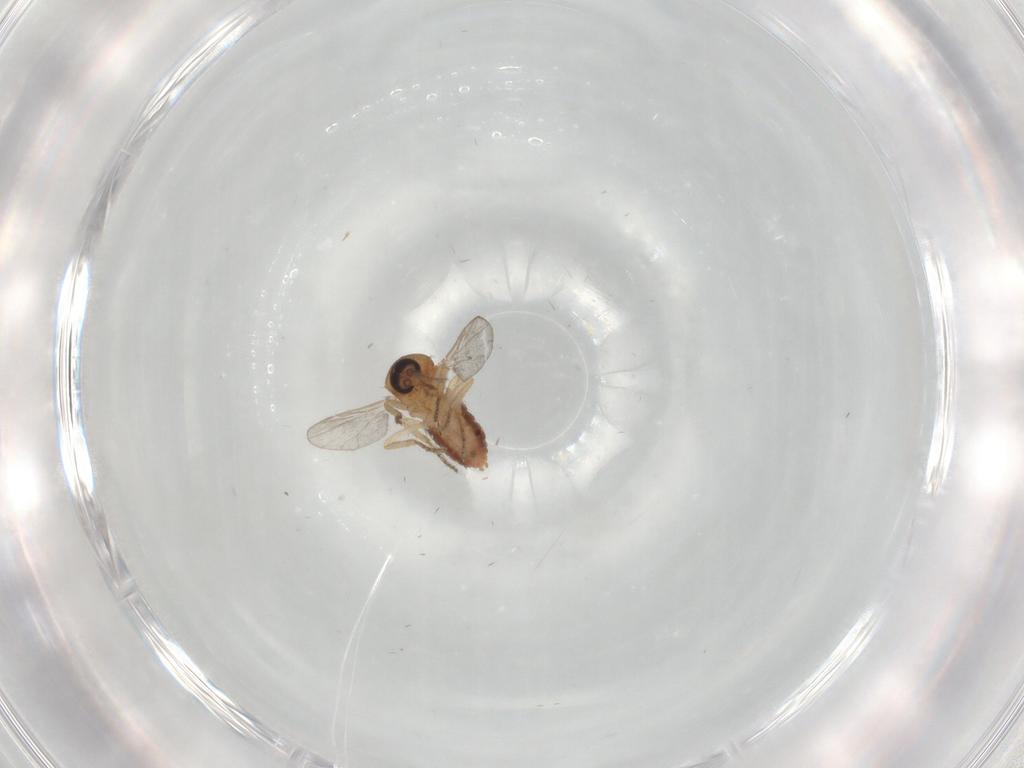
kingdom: Animalia
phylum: Arthropoda
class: Insecta
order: Diptera
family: Ceratopogonidae
